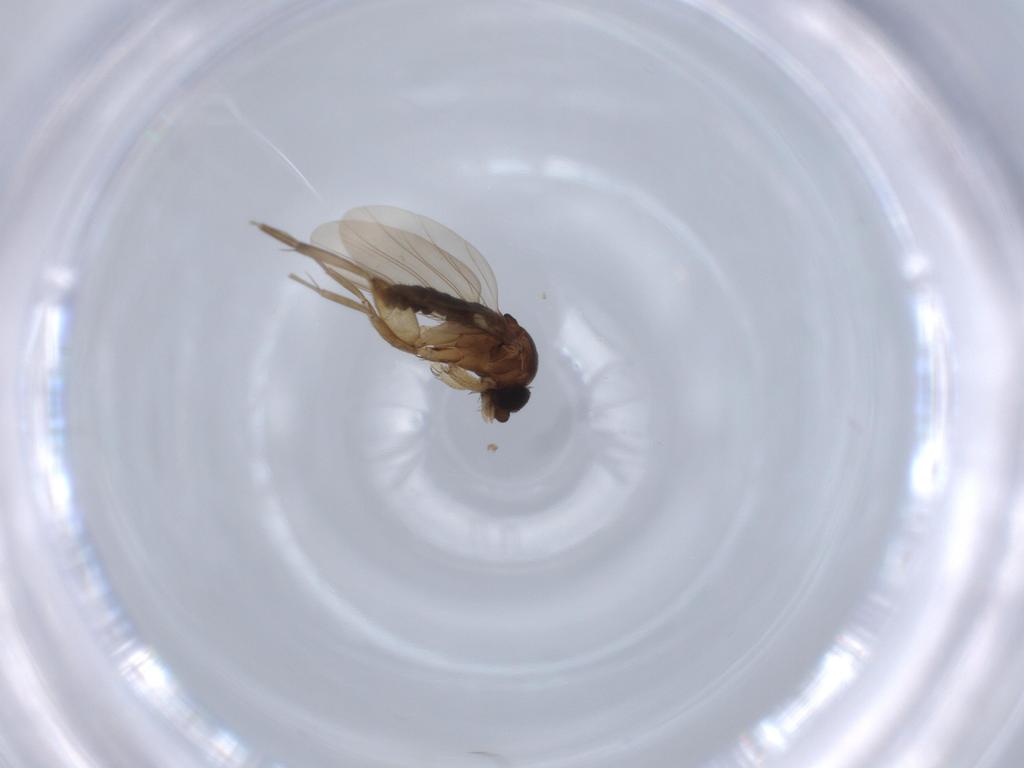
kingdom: Animalia
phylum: Arthropoda
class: Insecta
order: Diptera
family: Phoridae
